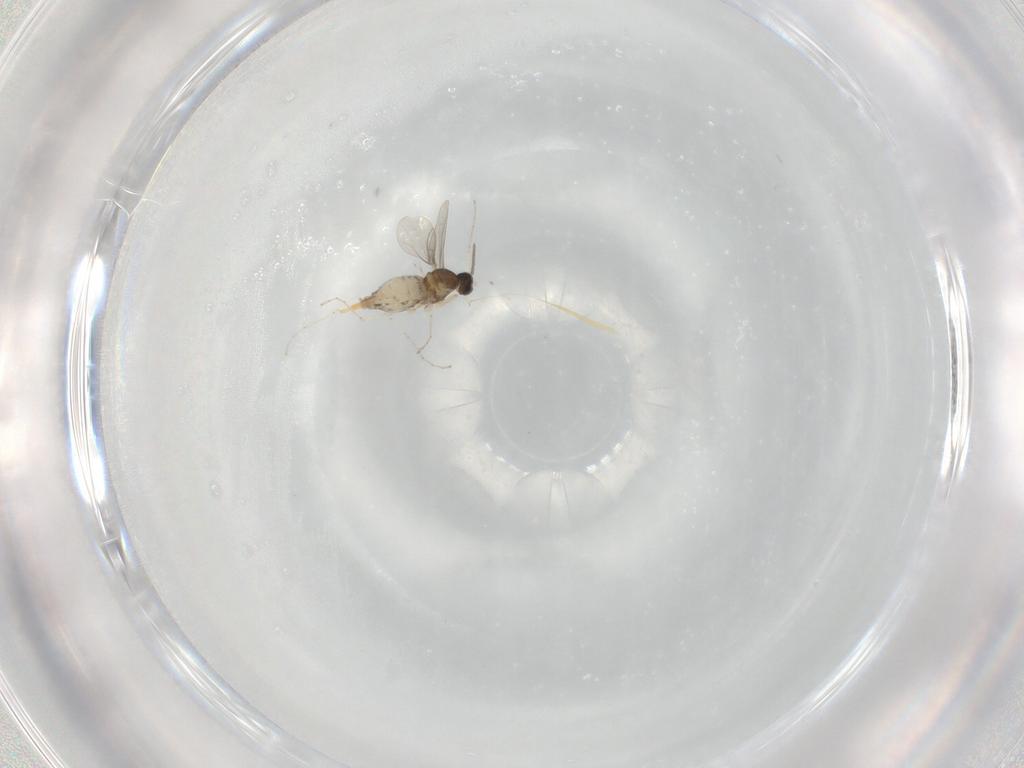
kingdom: Animalia
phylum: Arthropoda
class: Insecta
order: Diptera
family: Cecidomyiidae
